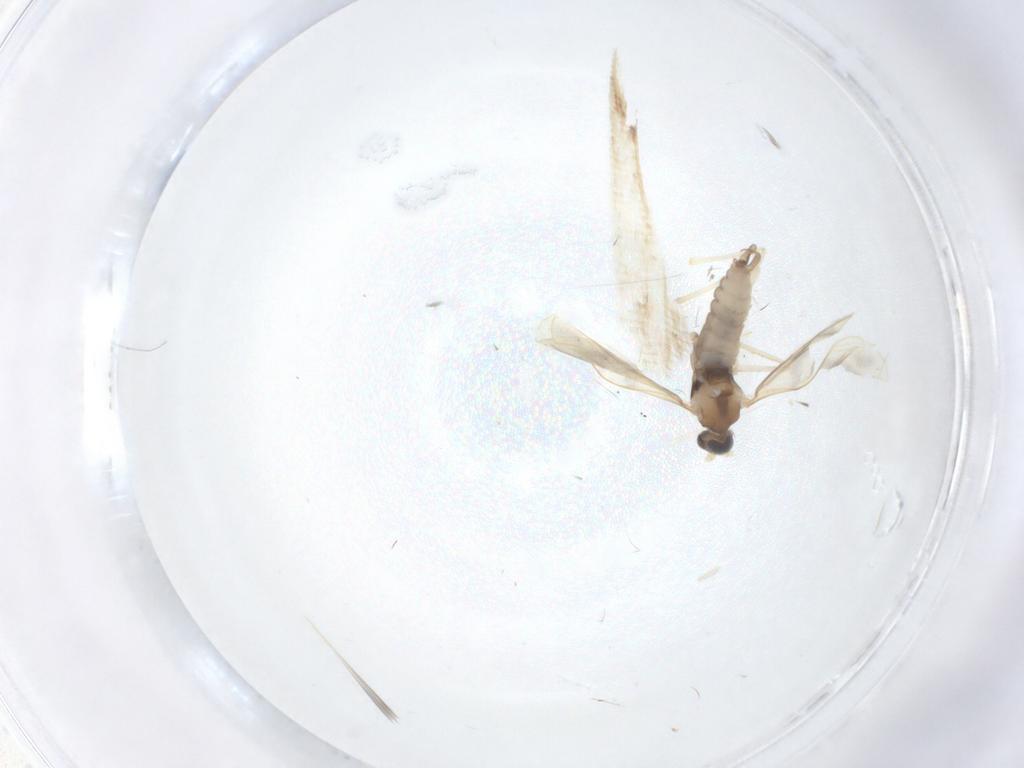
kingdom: Animalia
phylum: Arthropoda
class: Insecta
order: Diptera
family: Cecidomyiidae
